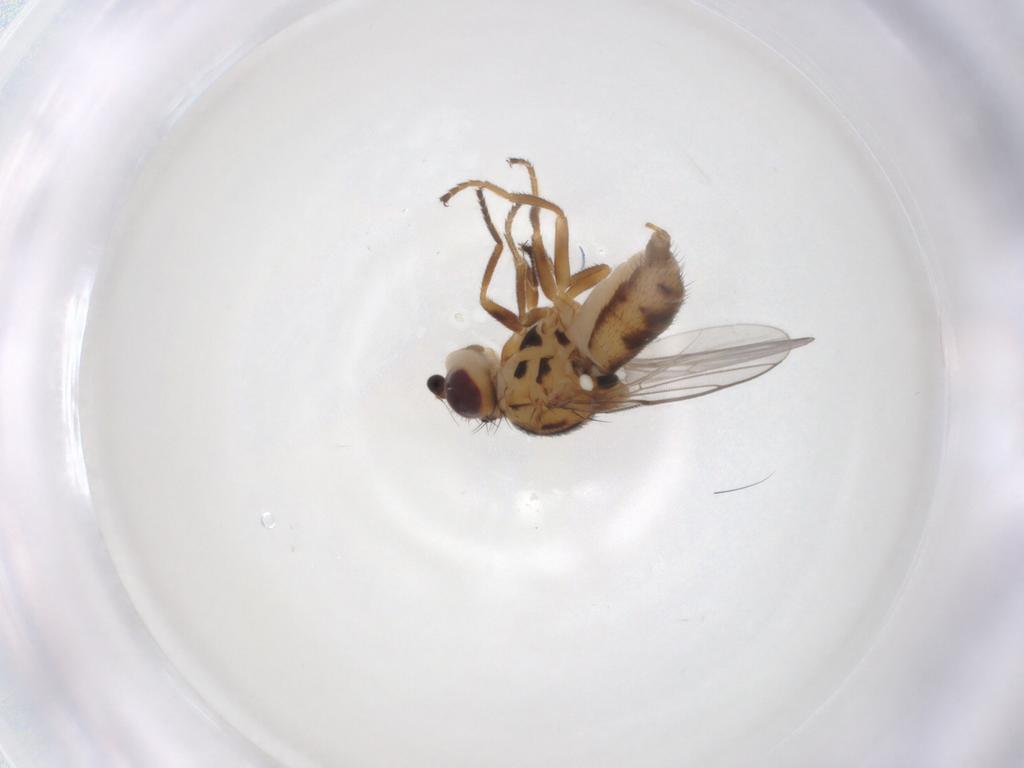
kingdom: Animalia
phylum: Arthropoda
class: Insecta
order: Diptera
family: Chloropidae
